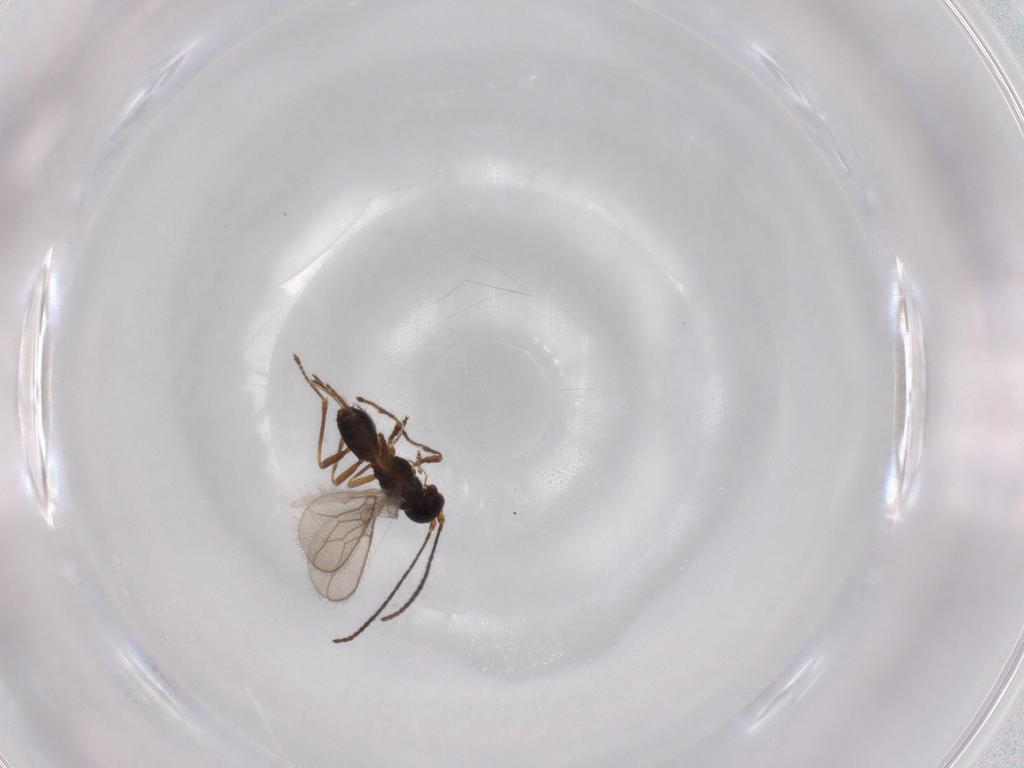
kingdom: Animalia
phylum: Arthropoda
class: Insecta
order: Hymenoptera
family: Braconidae
